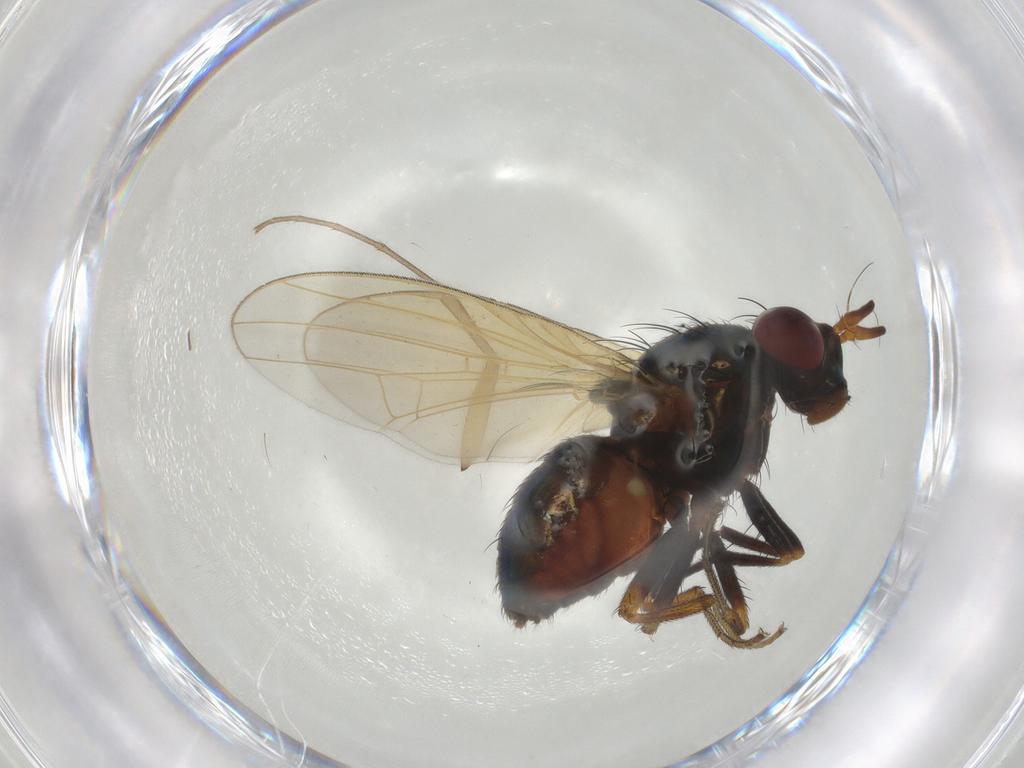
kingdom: Animalia
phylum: Arthropoda
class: Insecta
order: Diptera
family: Lauxaniidae
